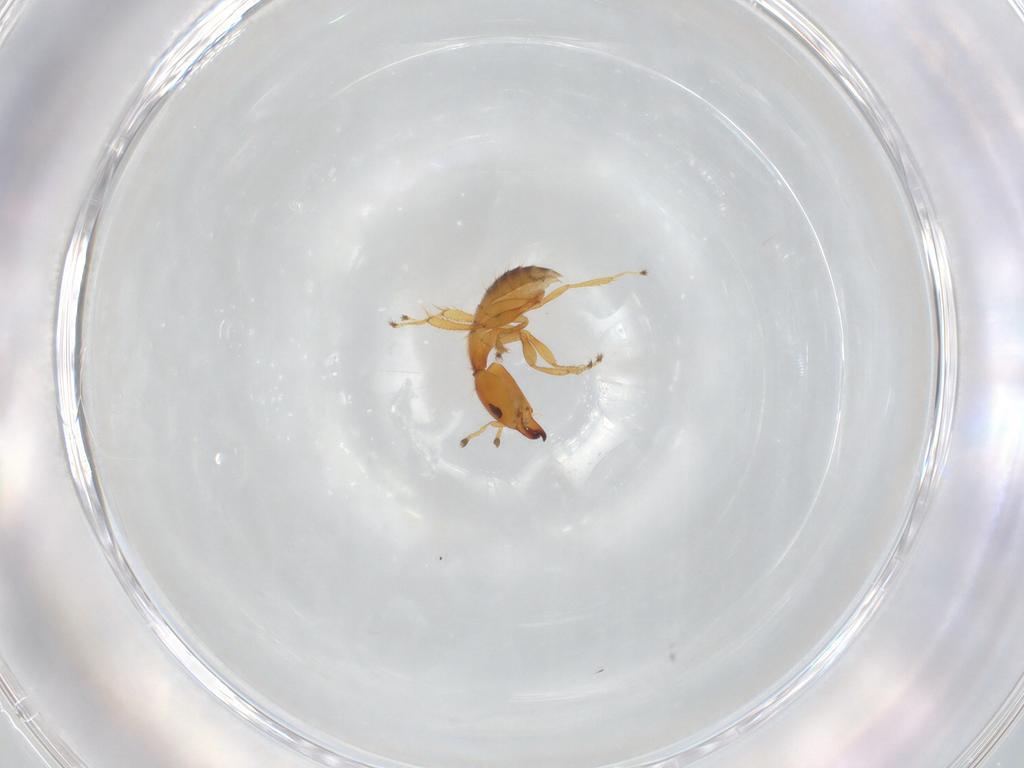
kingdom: Animalia
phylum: Arthropoda
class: Insecta
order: Hymenoptera
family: Pteromalidae
